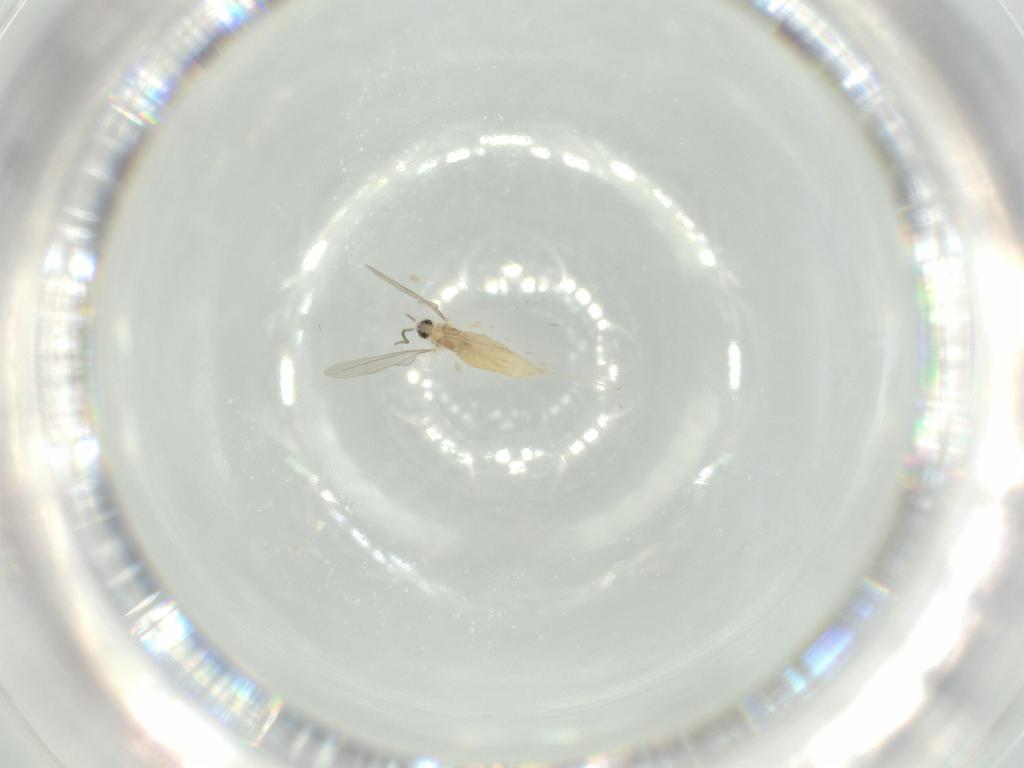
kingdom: Animalia
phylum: Arthropoda
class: Insecta
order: Diptera
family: Cecidomyiidae
